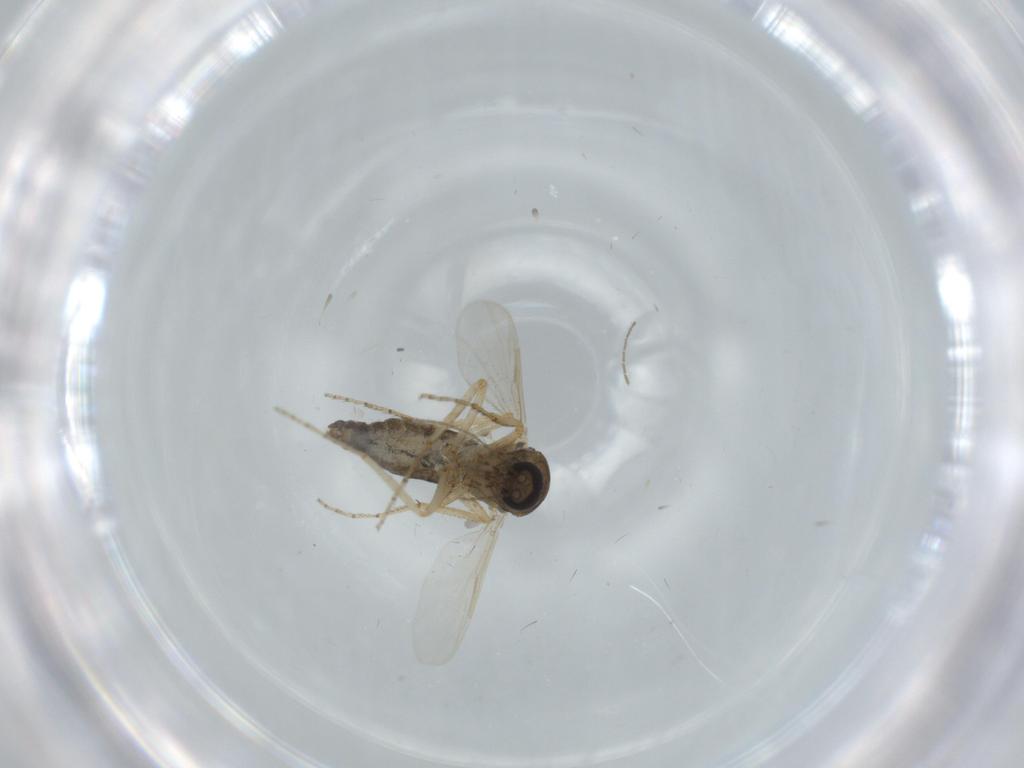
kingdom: Animalia
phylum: Arthropoda
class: Insecta
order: Diptera
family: Ceratopogonidae
